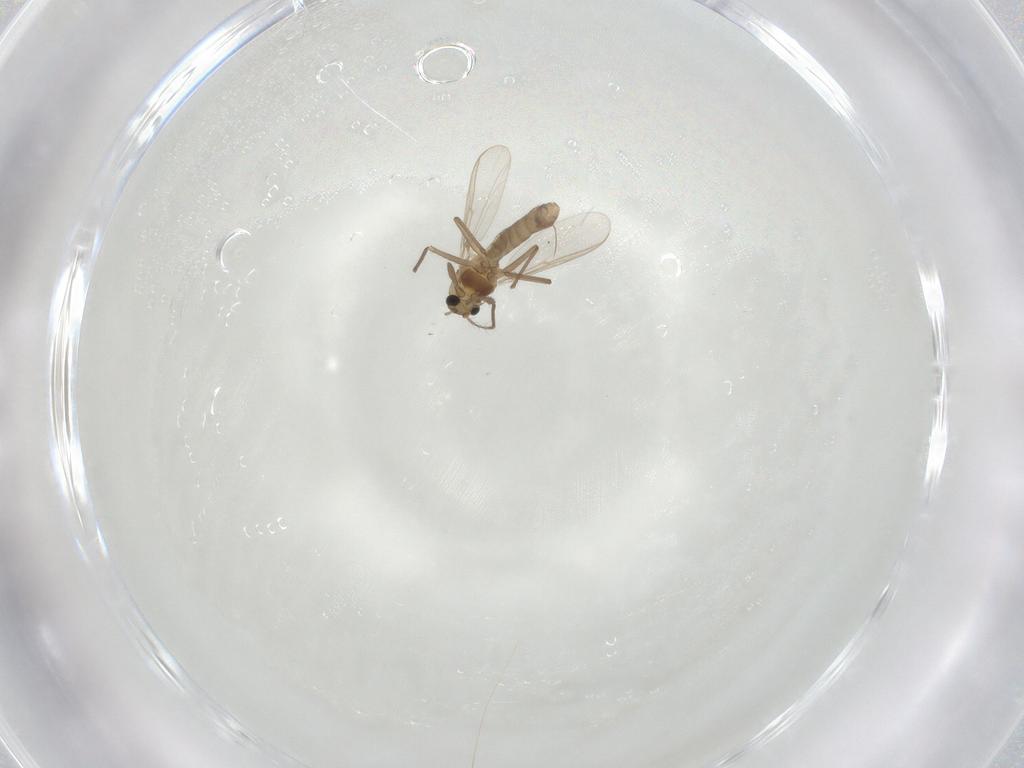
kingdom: Animalia
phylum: Arthropoda
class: Insecta
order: Diptera
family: Chironomidae
